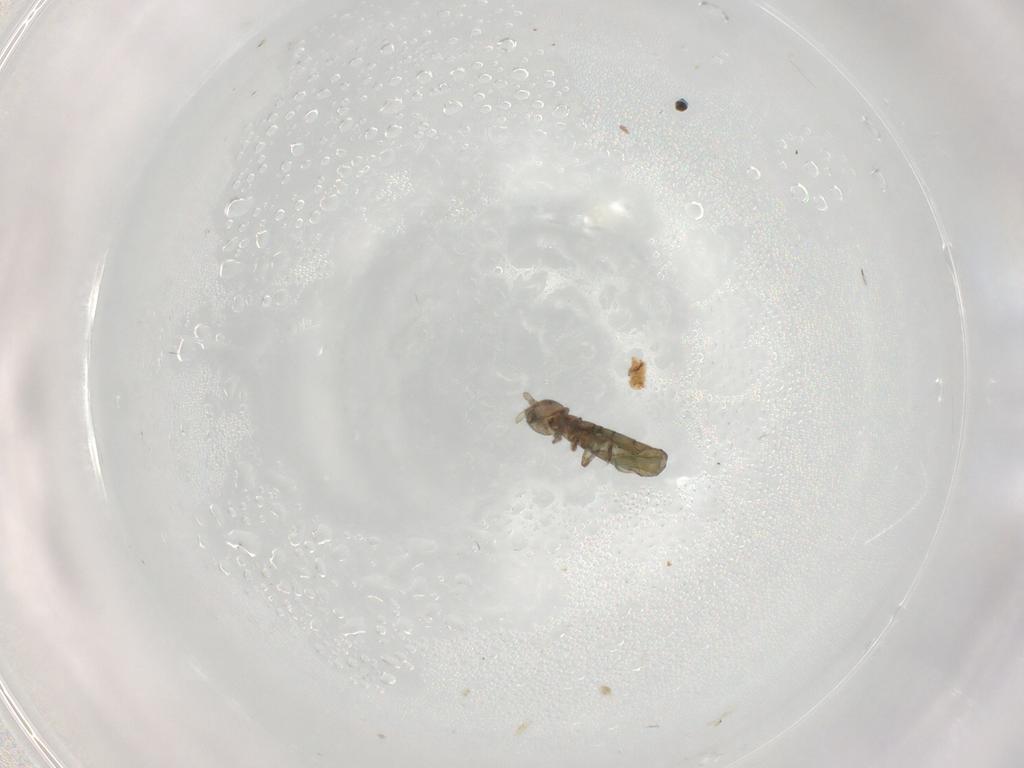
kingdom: Animalia
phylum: Arthropoda
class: Collembola
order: Entomobryomorpha
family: Isotomidae
